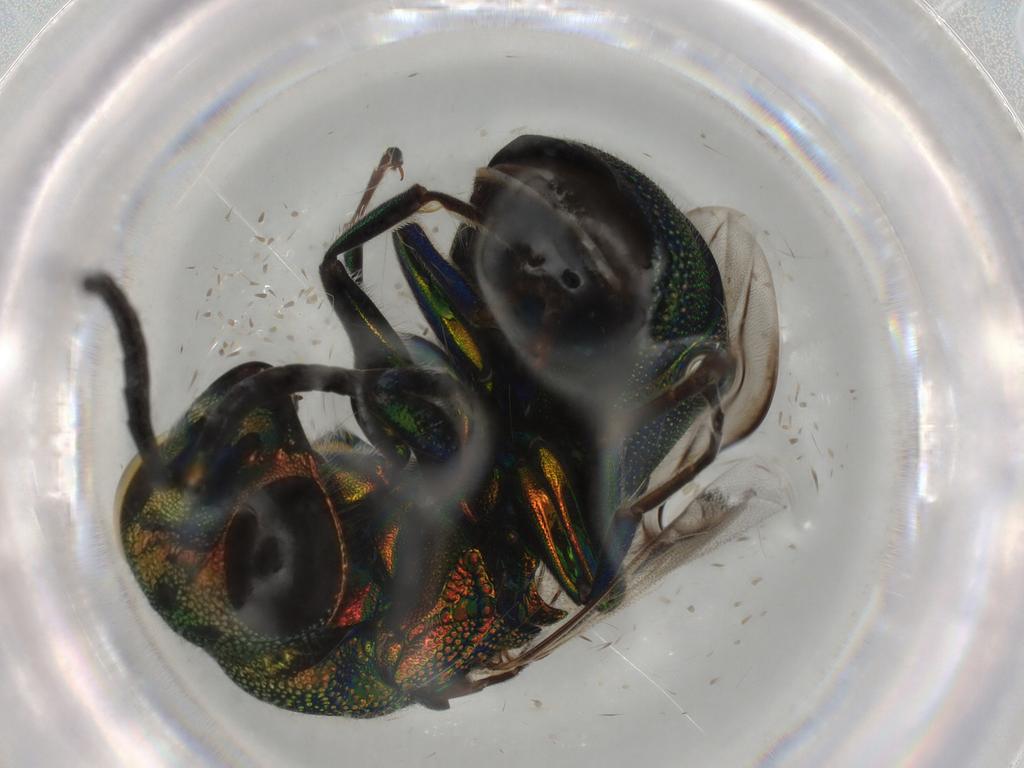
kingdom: Animalia
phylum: Arthropoda
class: Insecta
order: Hymenoptera
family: Chrysididae
